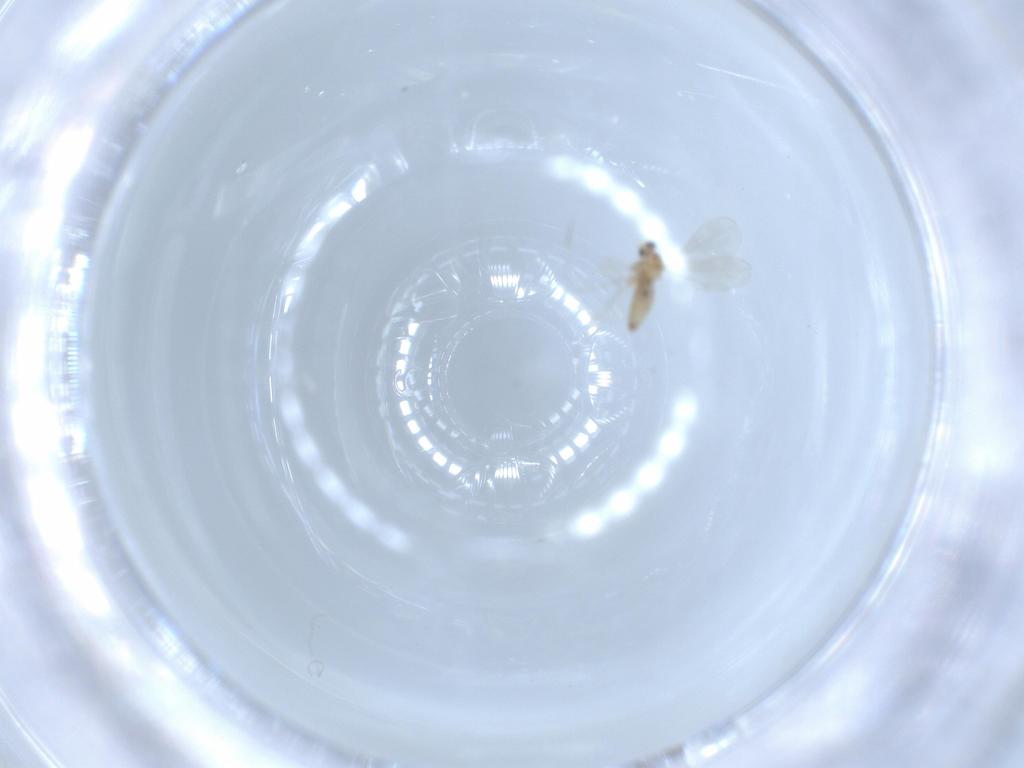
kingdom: Animalia
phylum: Arthropoda
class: Insecta
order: Diptera
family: Cecidomyiidae
